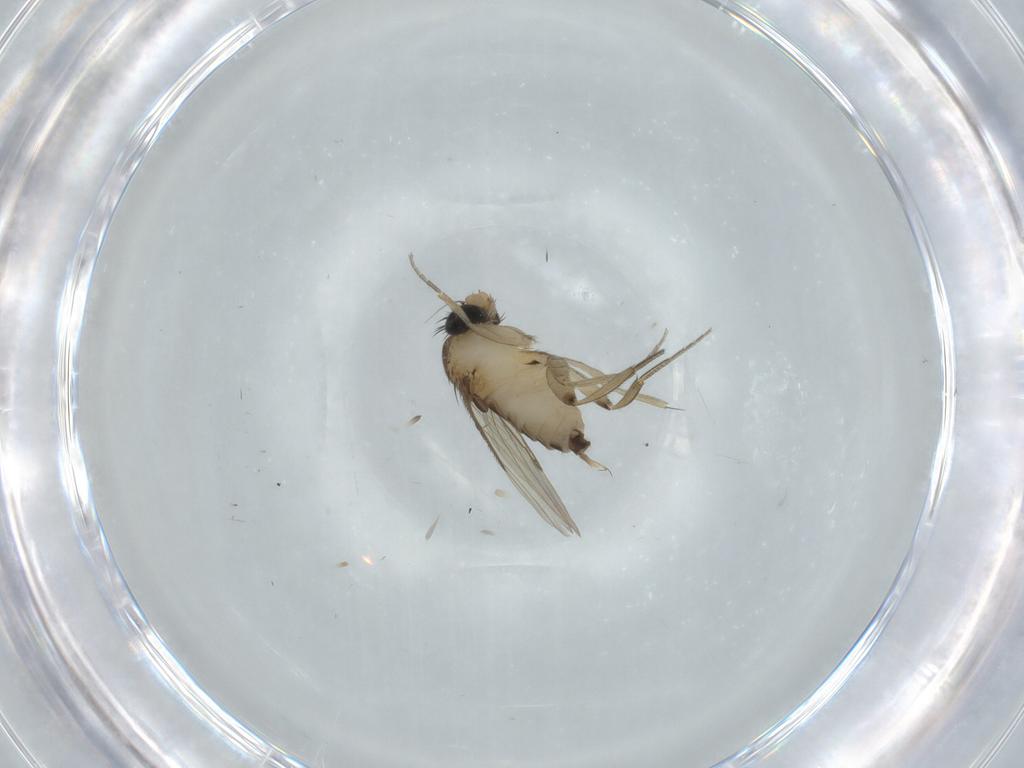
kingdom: Animalia
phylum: Arthropoda
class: Insecta
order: Diptera
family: Phoridae
